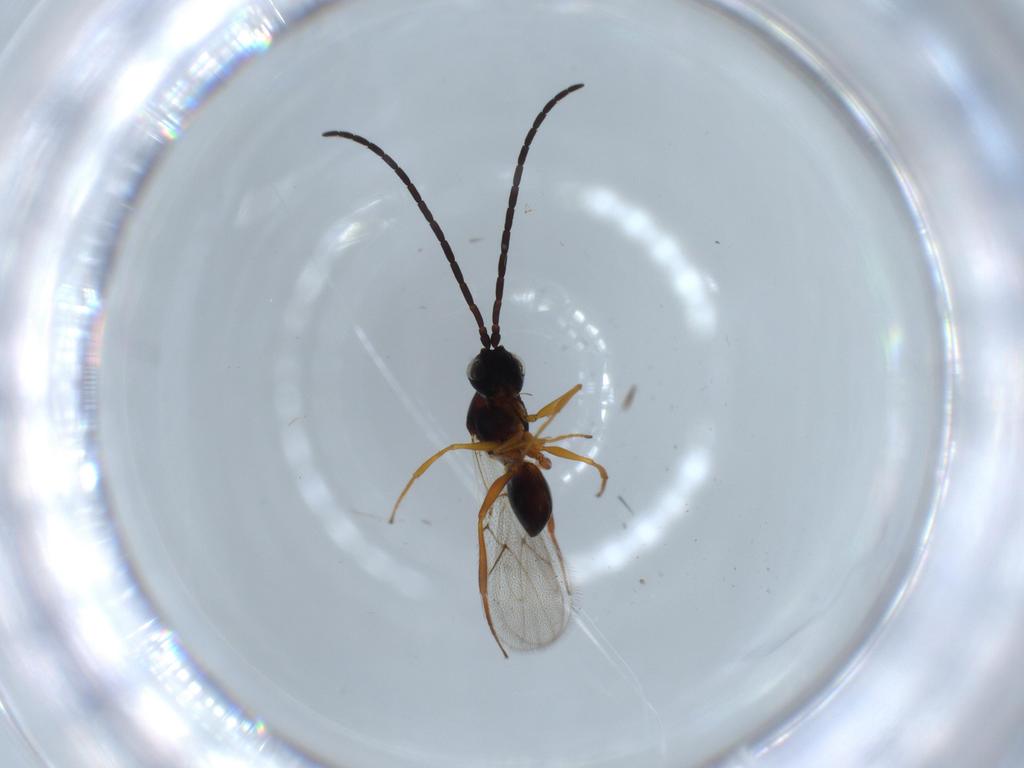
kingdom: Animalia
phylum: Arthropoda
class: Insecta
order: Hymenoptera
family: Figitidae
